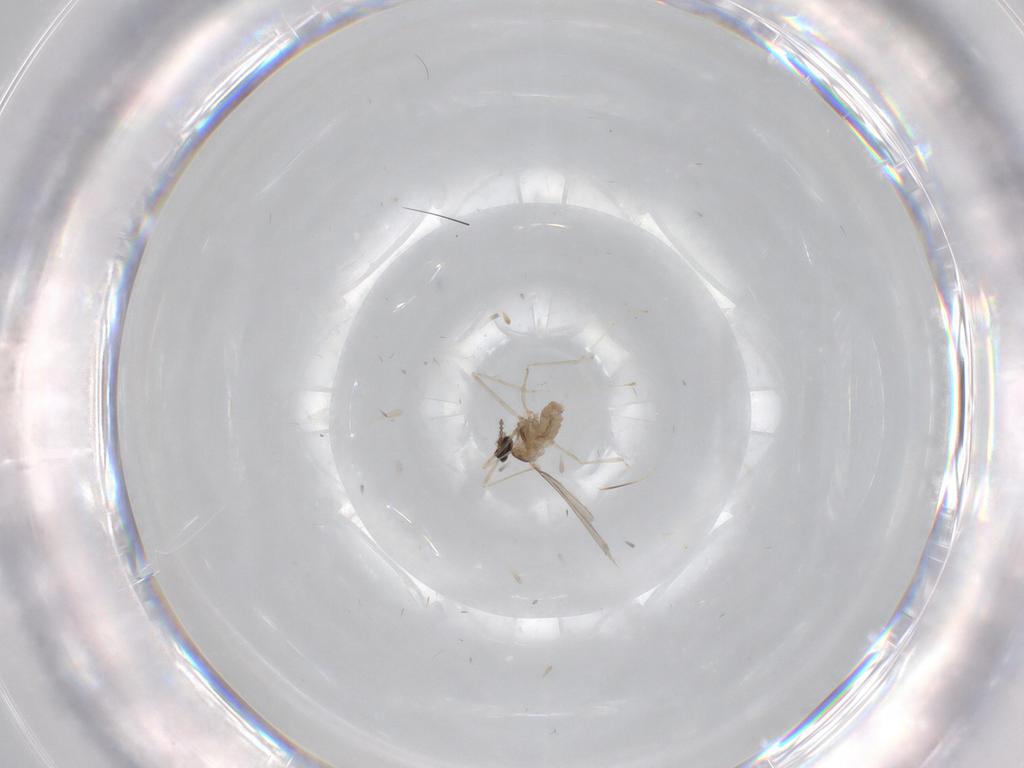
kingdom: Animalia
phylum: Arthropoda
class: Insecta
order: Diptera
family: Cecidomyiidae
